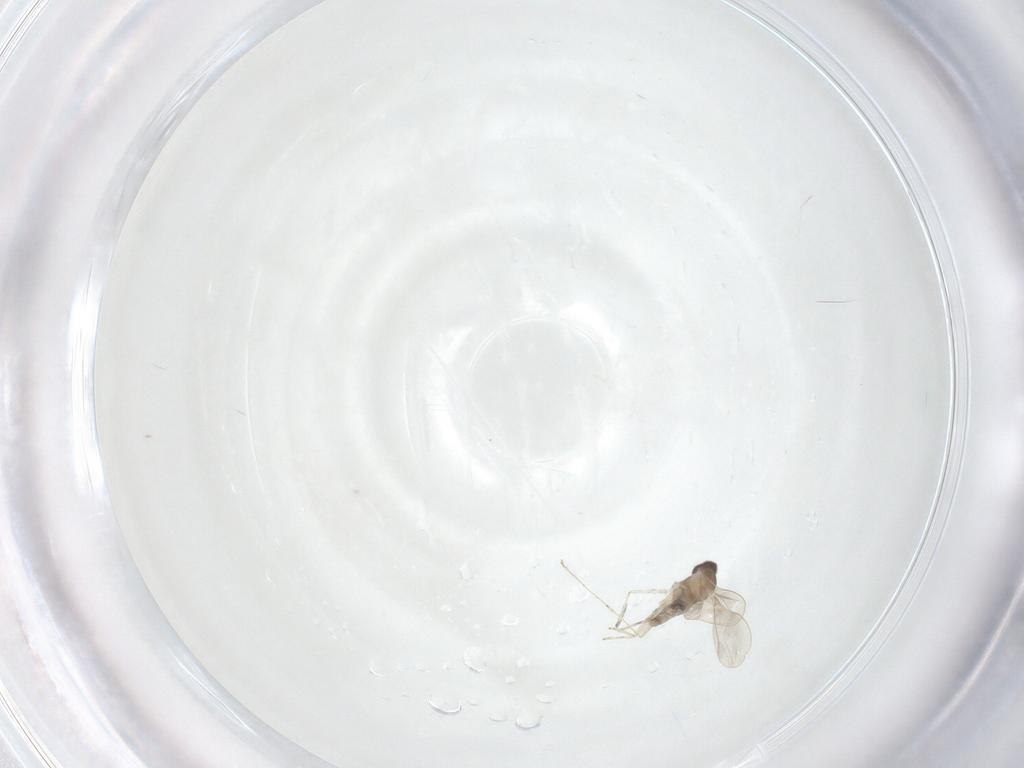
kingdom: Animalia
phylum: Arthropoda
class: Insecta
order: Diptera
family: Cecidomyiidae
